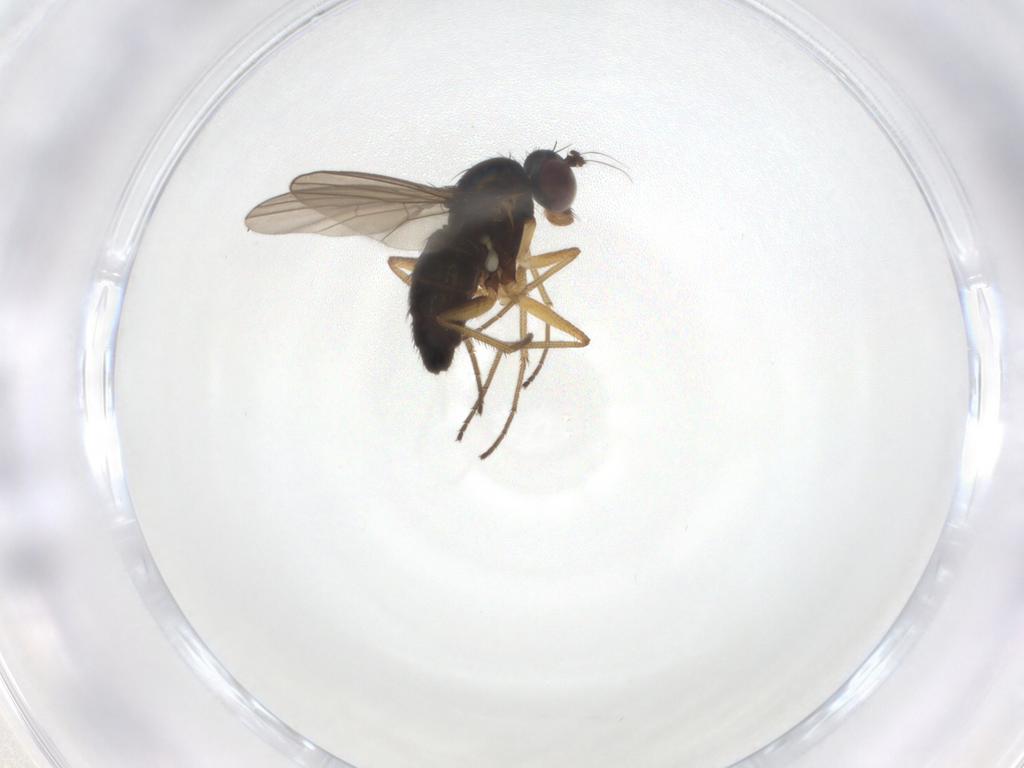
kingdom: Animalia
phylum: Arthropoda
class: Insecta
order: Diptera
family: Dolichopodidae
